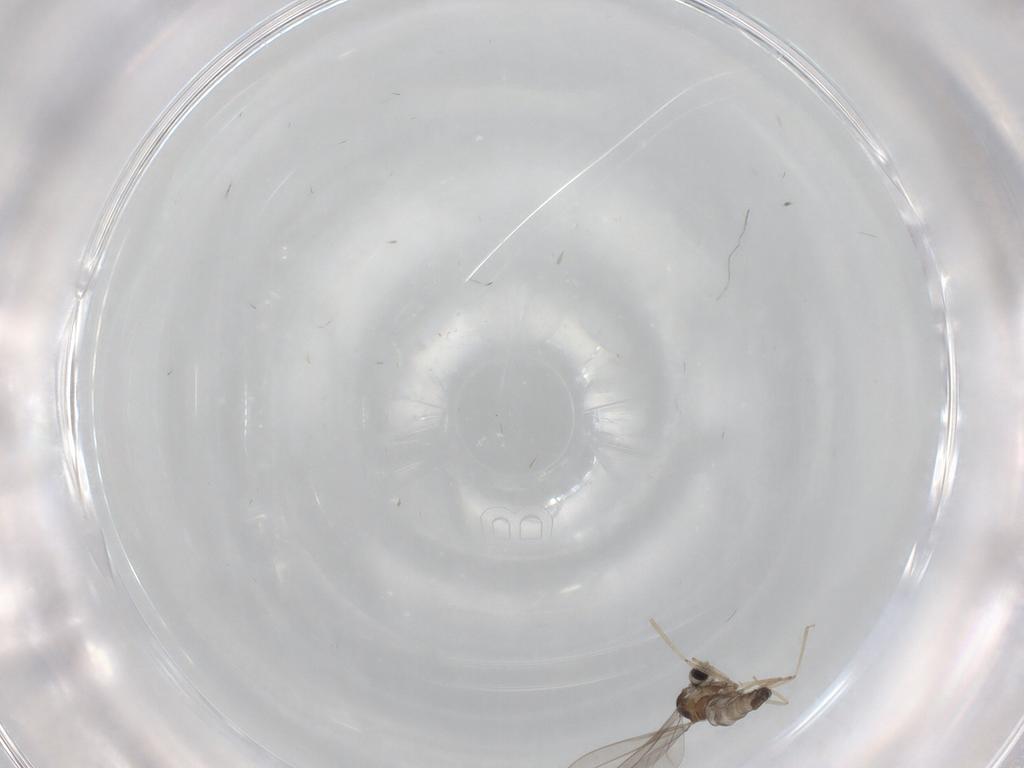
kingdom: Animalia
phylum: Arthropoda
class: Insecta
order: Diptera
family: Cecidomyiidae
